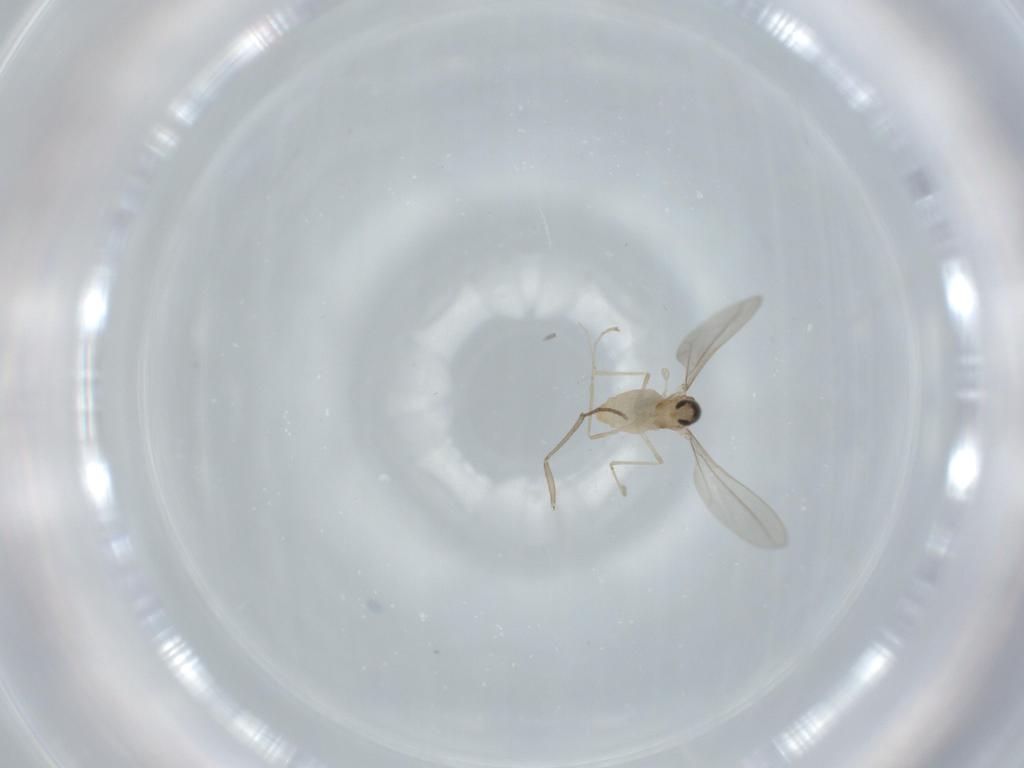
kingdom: Animalia
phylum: Arthropoda
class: Insecta
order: Diptera
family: Cecidomyiidae
